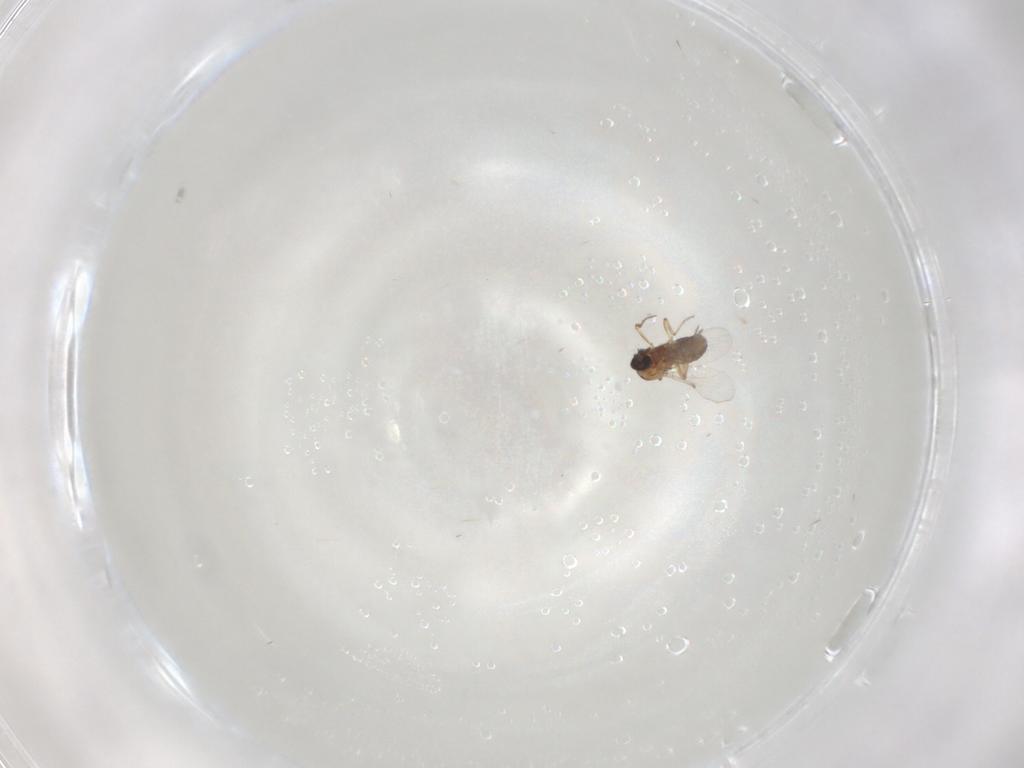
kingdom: Animalia
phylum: Arthropoda
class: Insecta
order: Diptera
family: Ceratopogonidae
